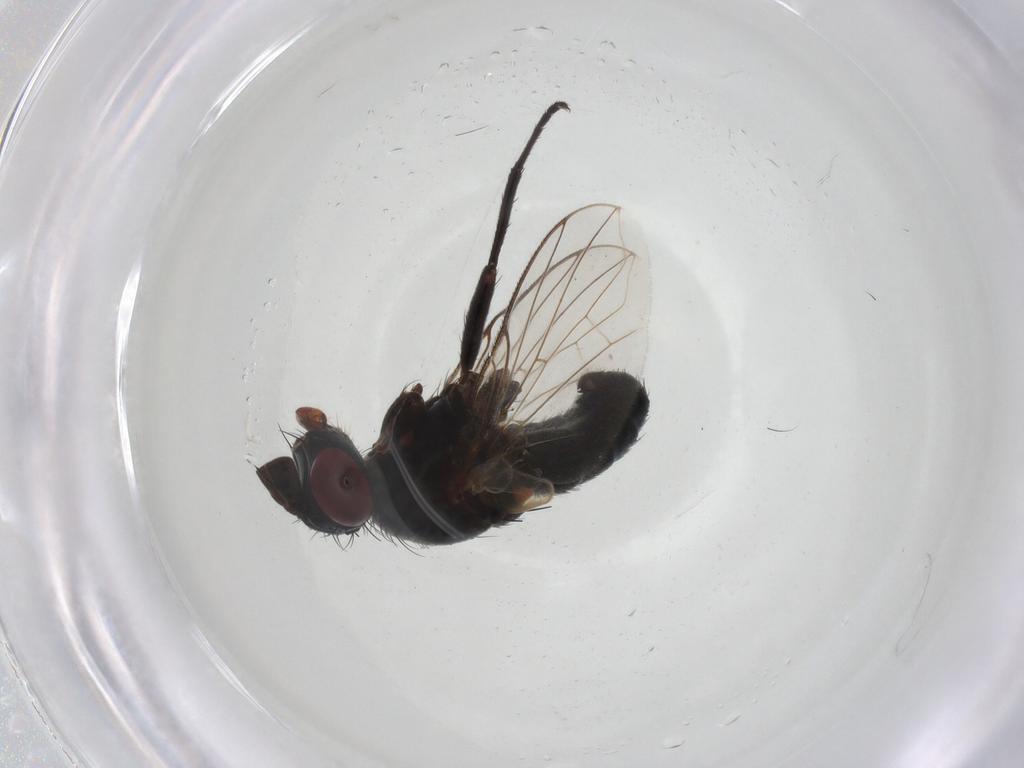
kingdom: Animalia
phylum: Arthropoda
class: Insecta
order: Diptera
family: Tachinidae
